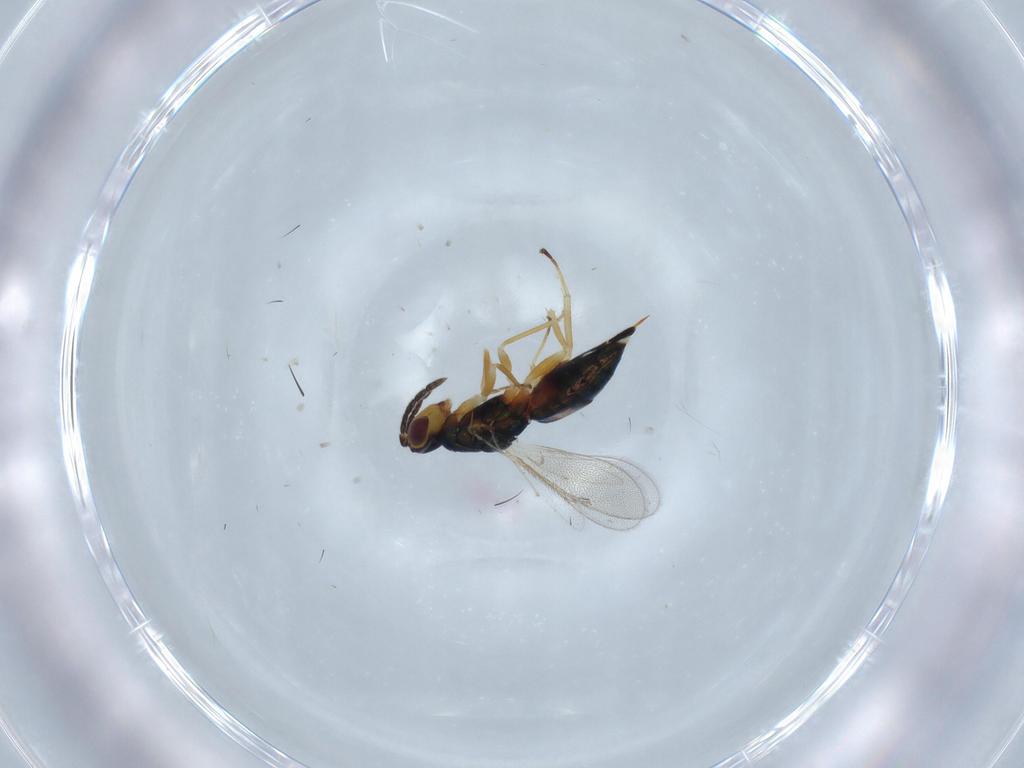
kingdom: Animalia
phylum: Arthropoda
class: Insecta
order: Hymenoptera
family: Eulophidae
